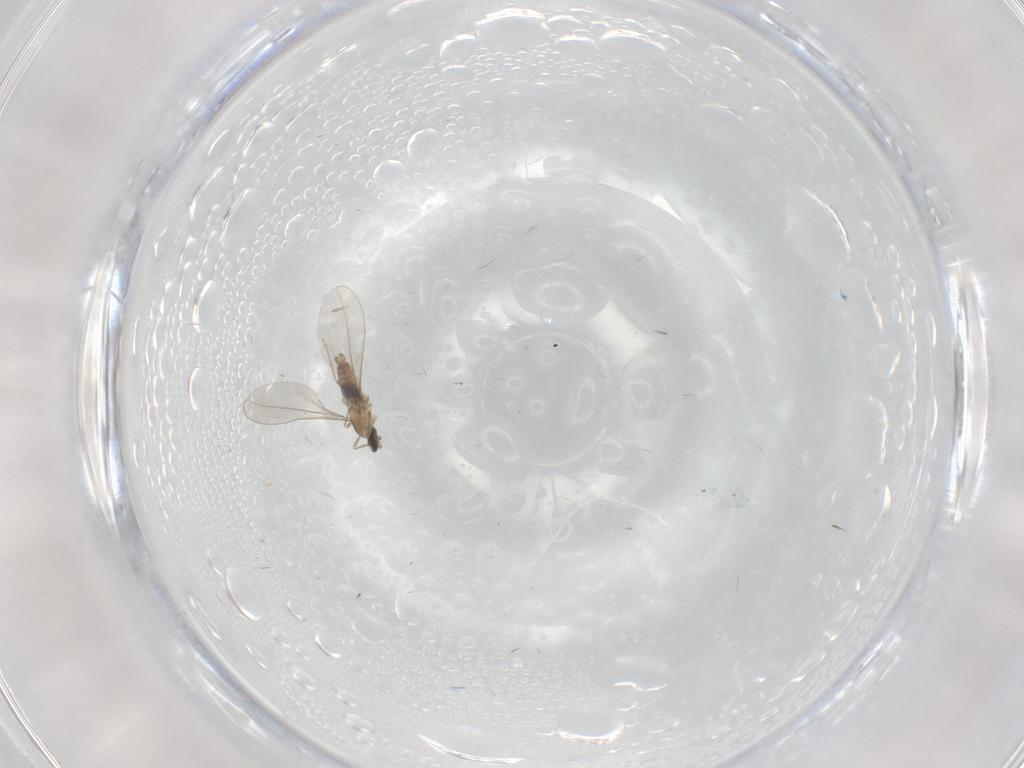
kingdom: Animalia
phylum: Arthropoda
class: Insecta
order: Diptera
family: Cecidomyiidae
